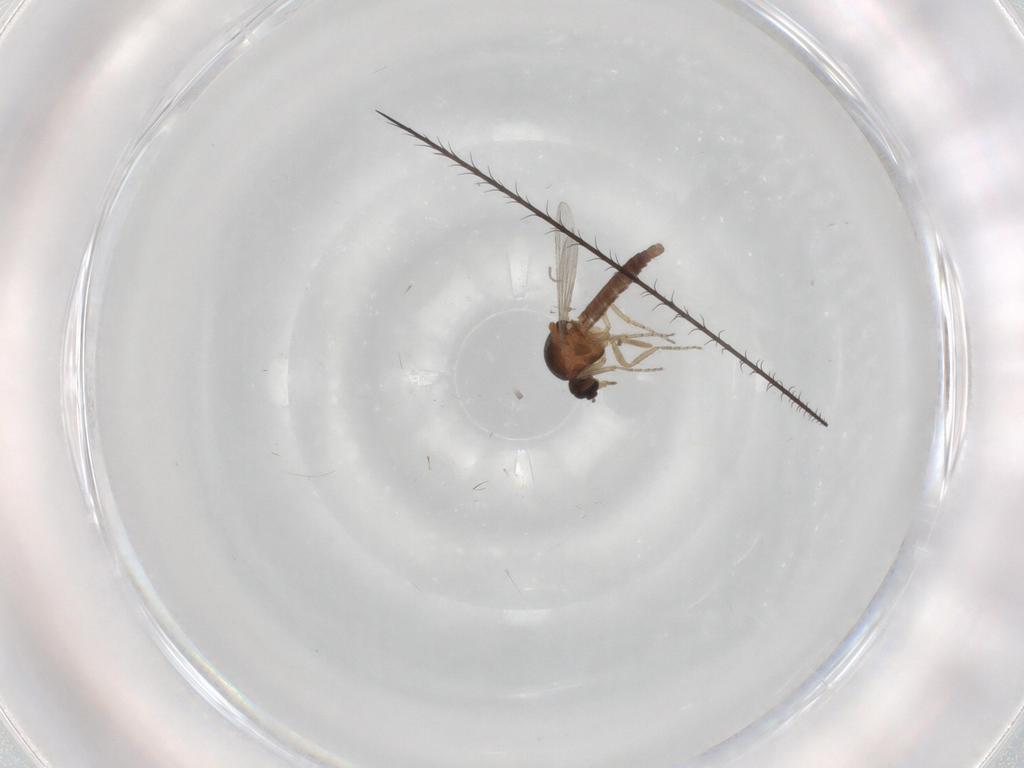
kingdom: Animalia
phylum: Arthropoda
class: Insecta
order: Diptera
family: Ceratopogonidae
